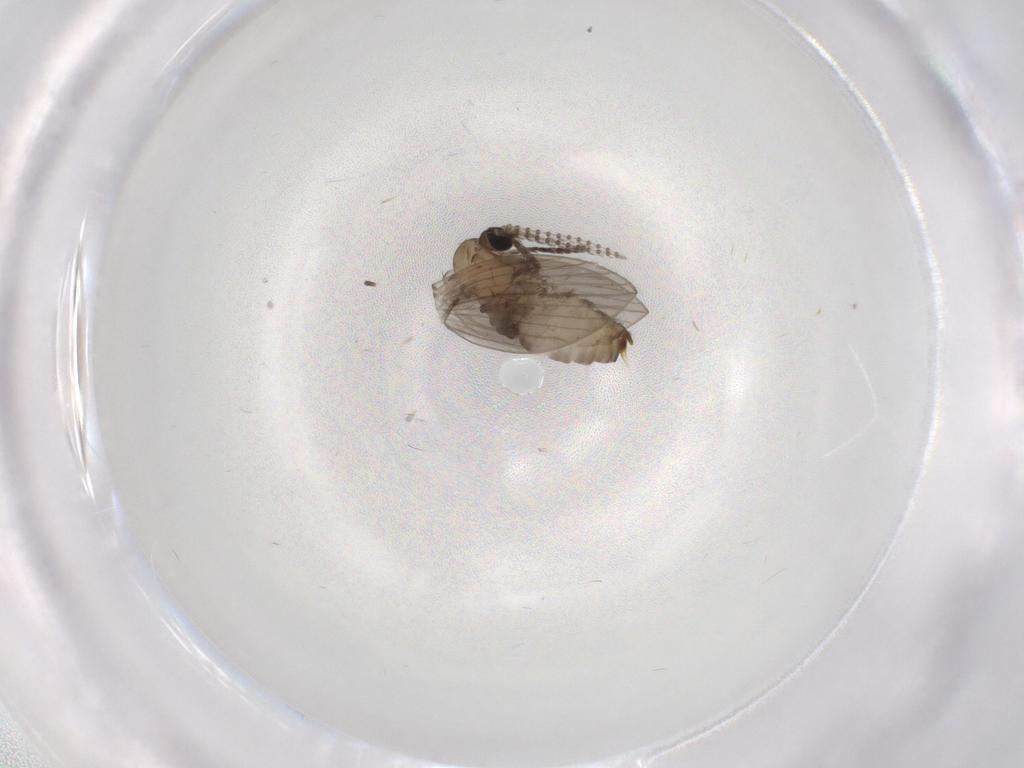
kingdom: Animalia
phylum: Arthropoda
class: Insecta
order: Diptera
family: Psychodidae
